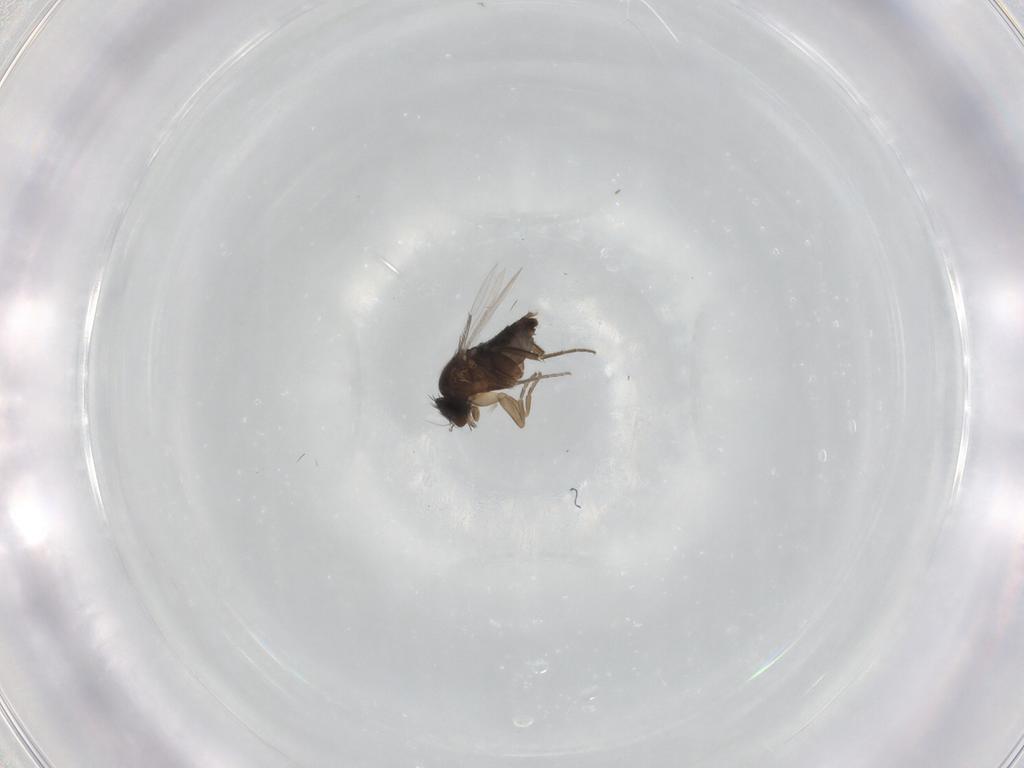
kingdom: Animalia
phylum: Arthropoda
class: Insecta
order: Diptera
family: Phoridae
